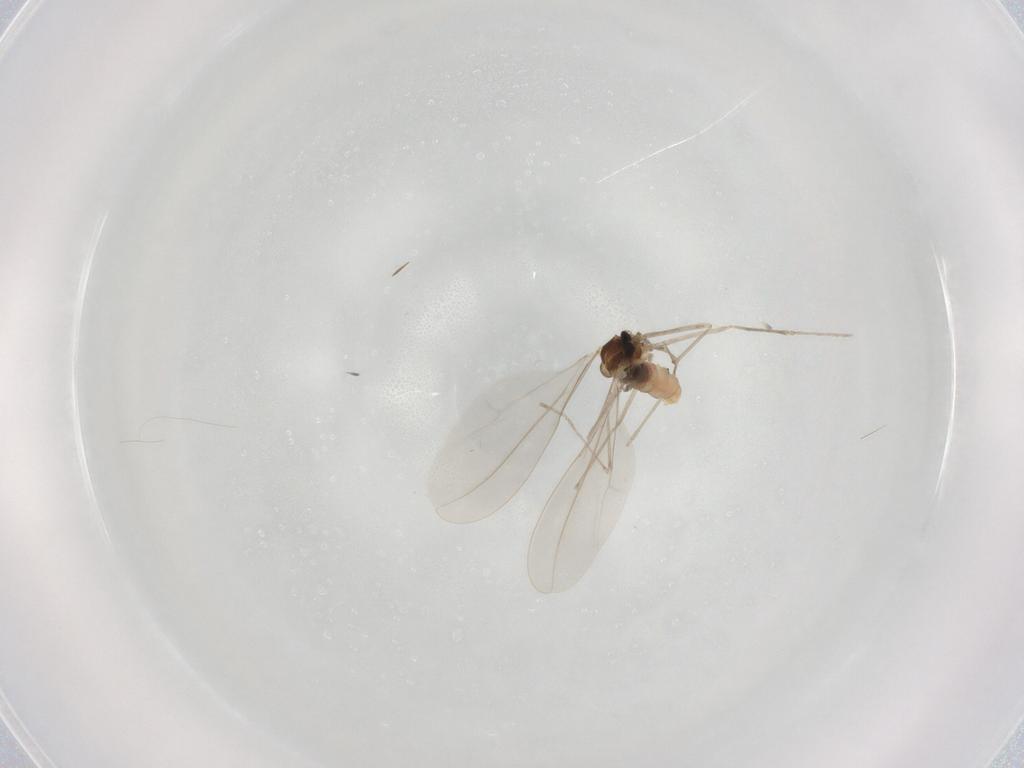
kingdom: Animalia
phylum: Arthropoda
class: Insecta
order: Diptera
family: Cecidomyiidae
